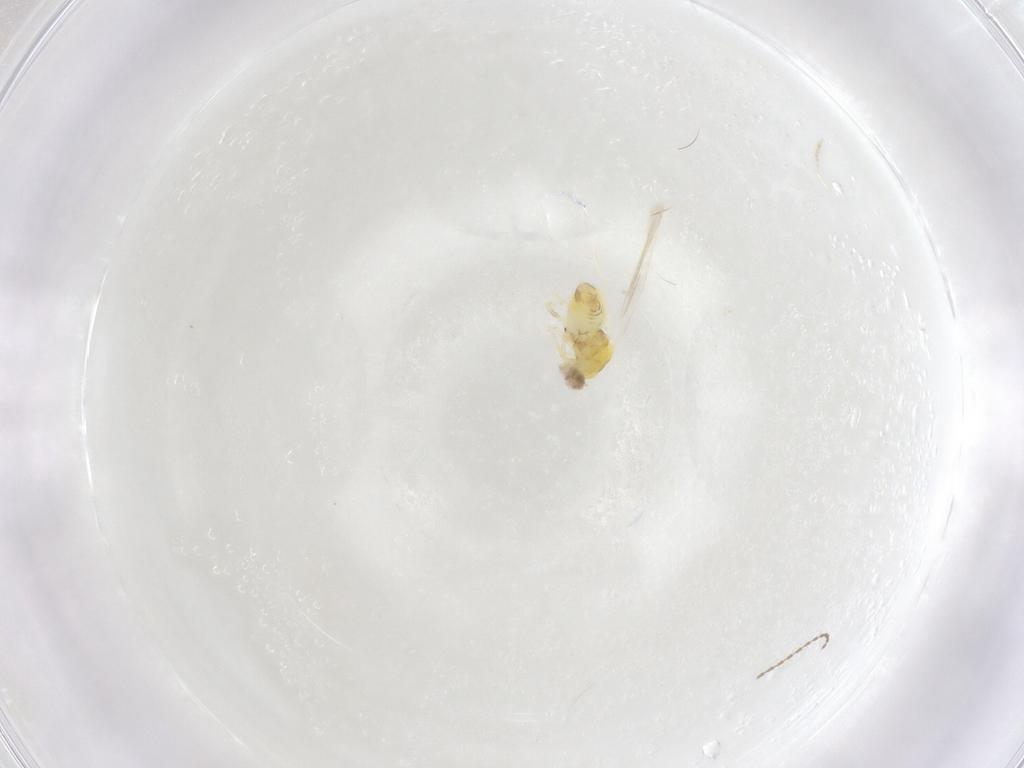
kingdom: Animalia
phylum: Arthropoda
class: Insecta
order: Hemiptera
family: Aleyrodidae
